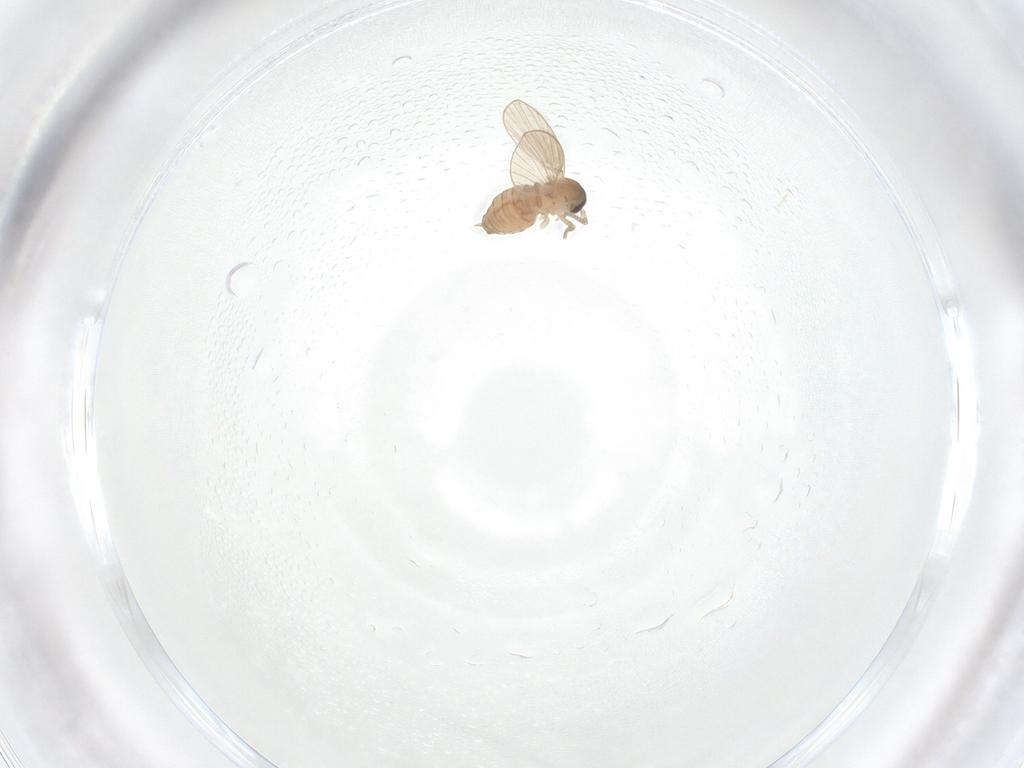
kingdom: Animalia
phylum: Arthropoda
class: Insecta
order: Diptera
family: Psychodidae
